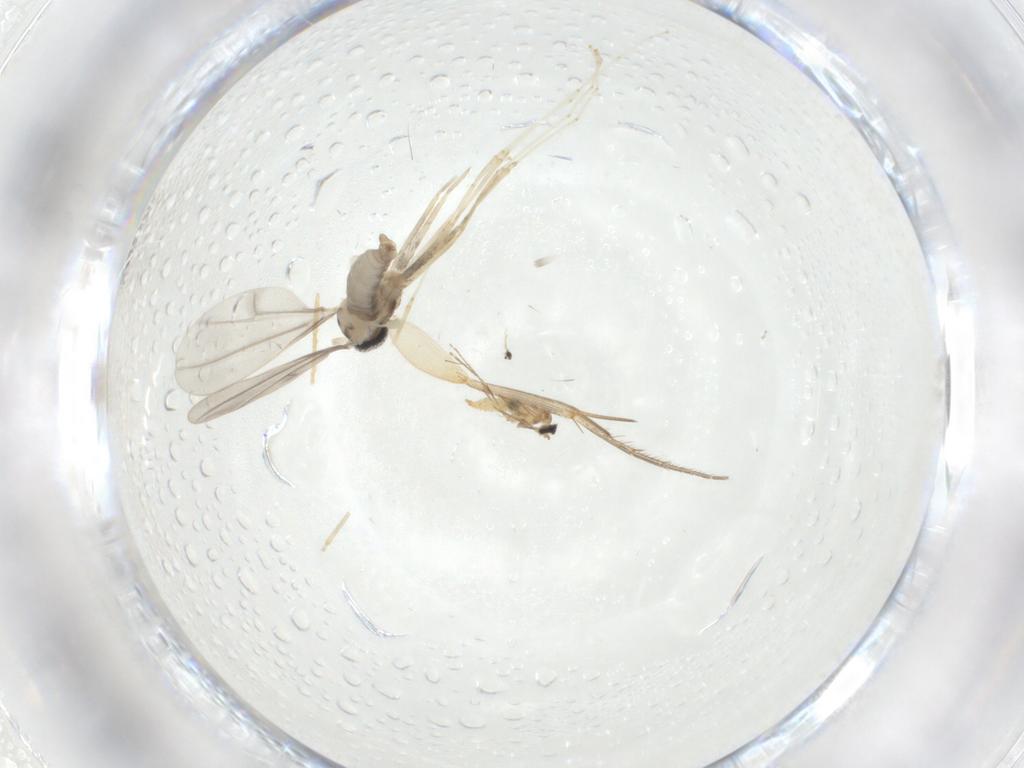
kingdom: Animalia
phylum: Arthropoda
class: Insecta
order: Diptera
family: Cecidomyiidae
